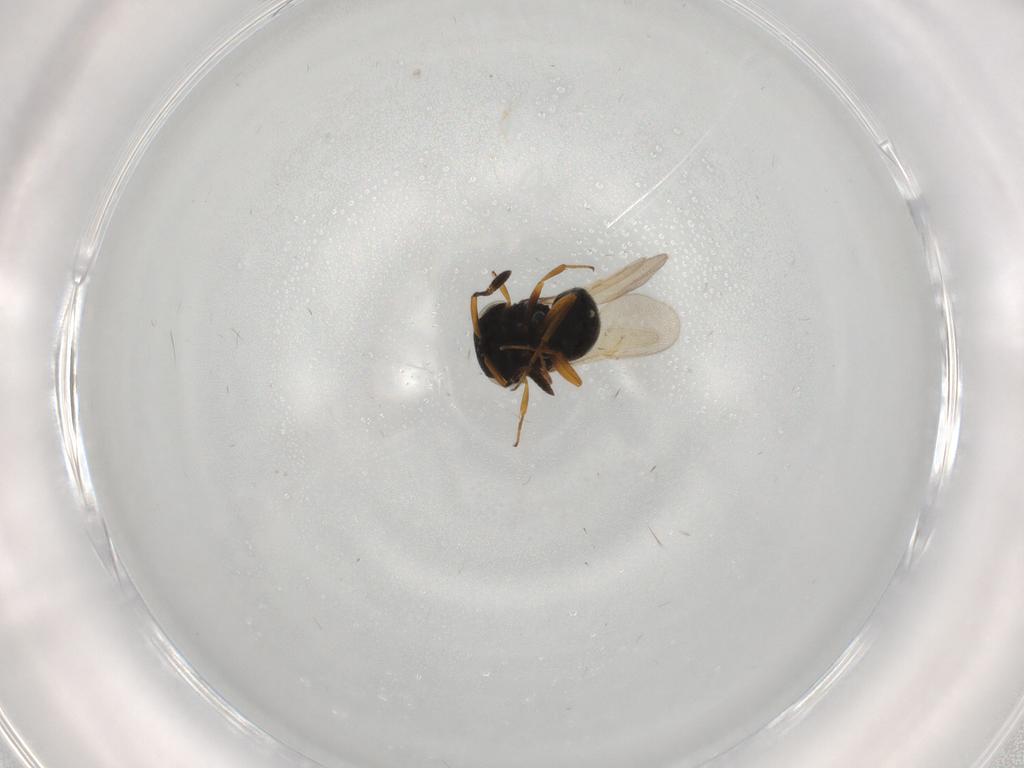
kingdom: Animalia
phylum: Arthropoda
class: Insecta
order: Hymenoptera
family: Scelionidae
